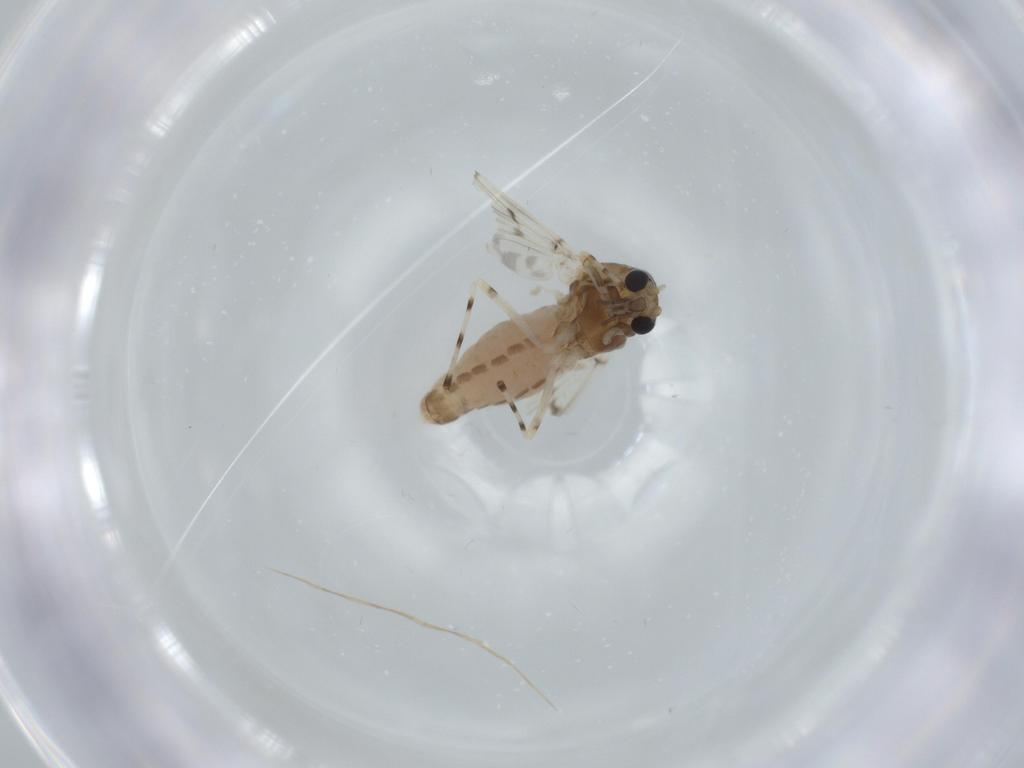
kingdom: Animalia
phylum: Arthropoda
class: Insecta
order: Diptera
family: Chironomidae
